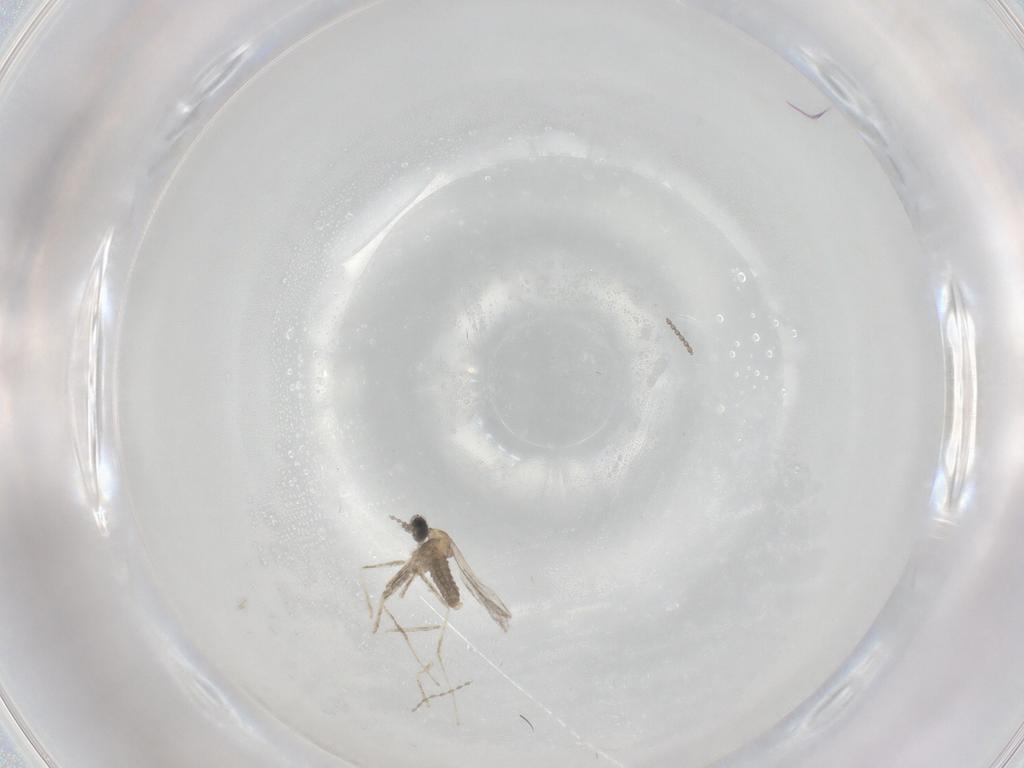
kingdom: Animalia
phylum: Arthropoda
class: Insecta
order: Diptera
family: Cecidomyiidae
